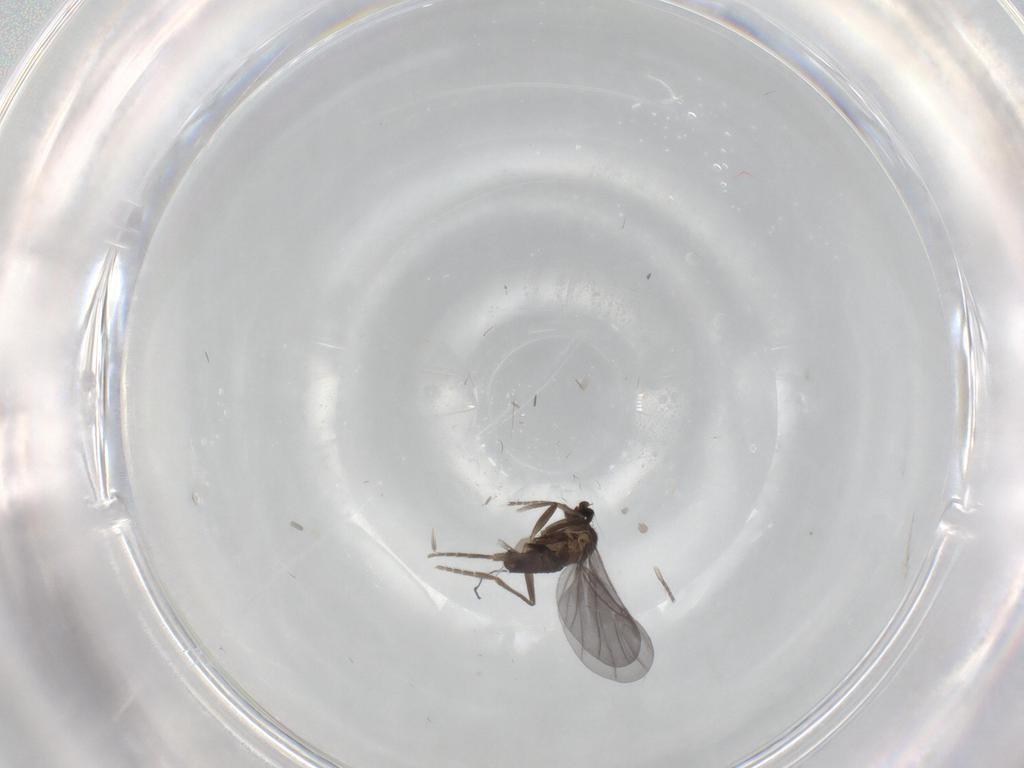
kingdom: Animalia
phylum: Arthropoda
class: Insecta
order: Diptera
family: Phoridae
